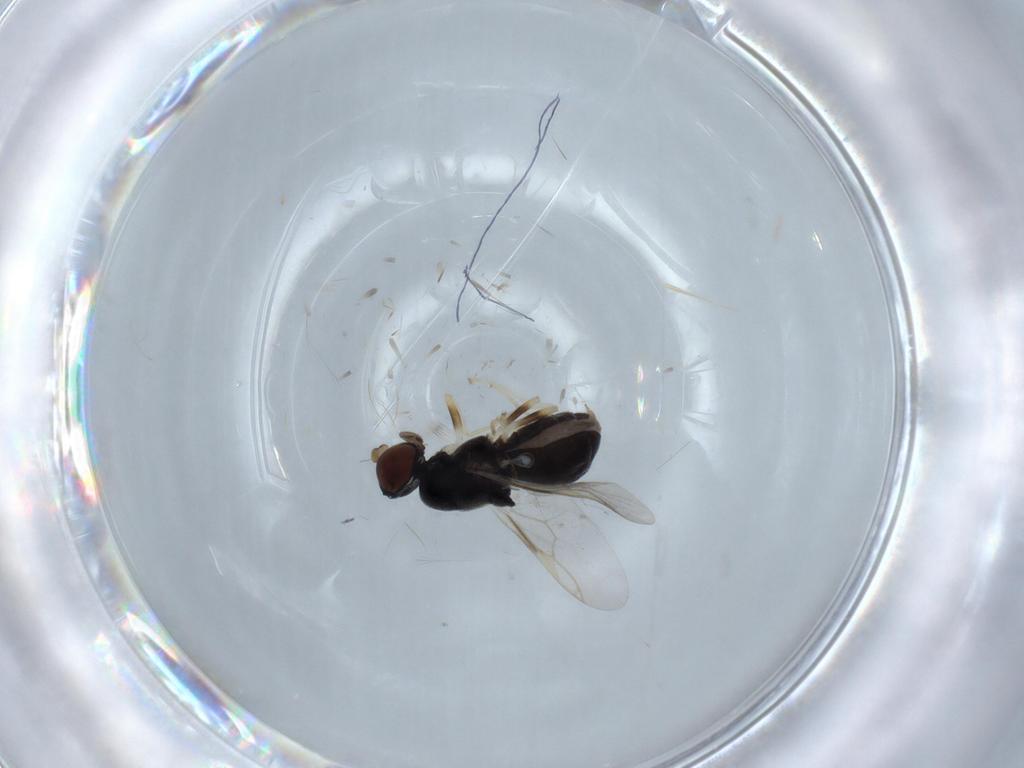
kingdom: Animalia
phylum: Arthropoda
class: Insecta
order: Diptera
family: Stratiomyidae
